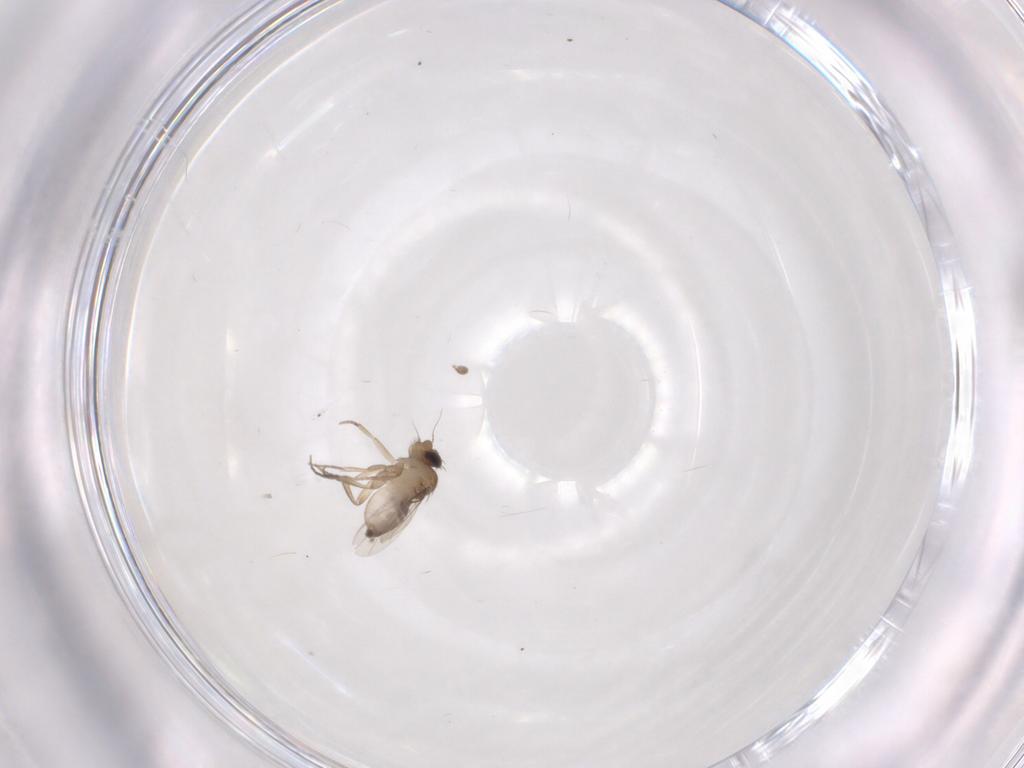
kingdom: Animalia
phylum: Arthropoda
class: Insecta
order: Diptera
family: Phoridae
